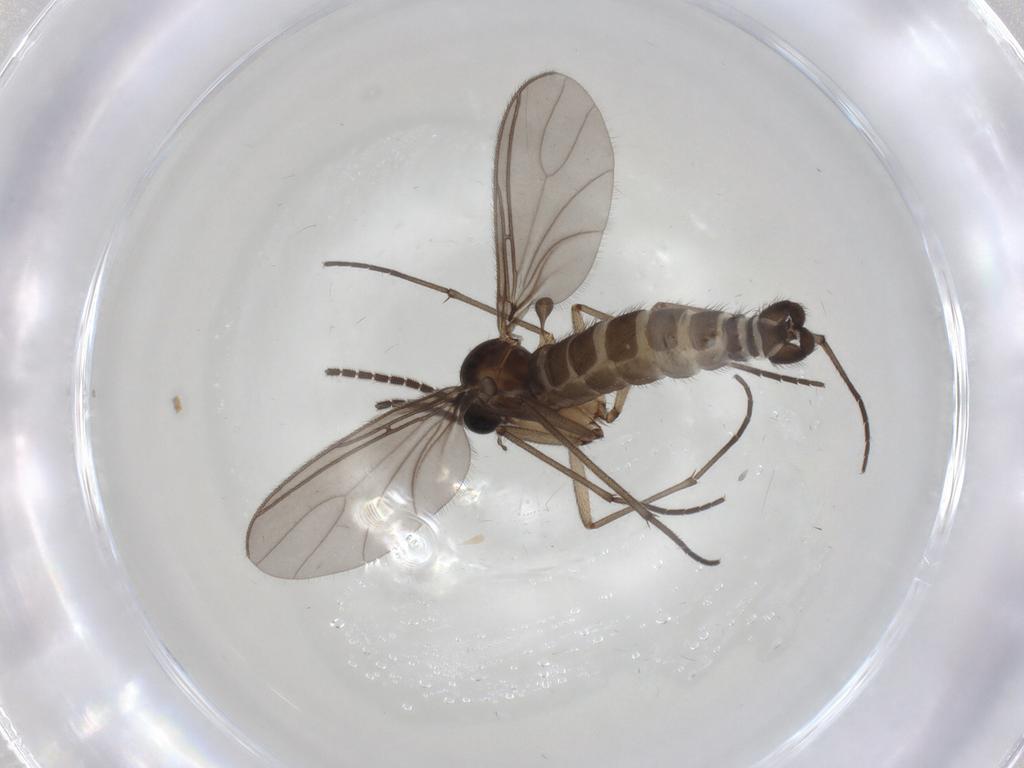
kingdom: Animalia
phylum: Arthropoda
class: Insecta
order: Diptera
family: Sciaridae
